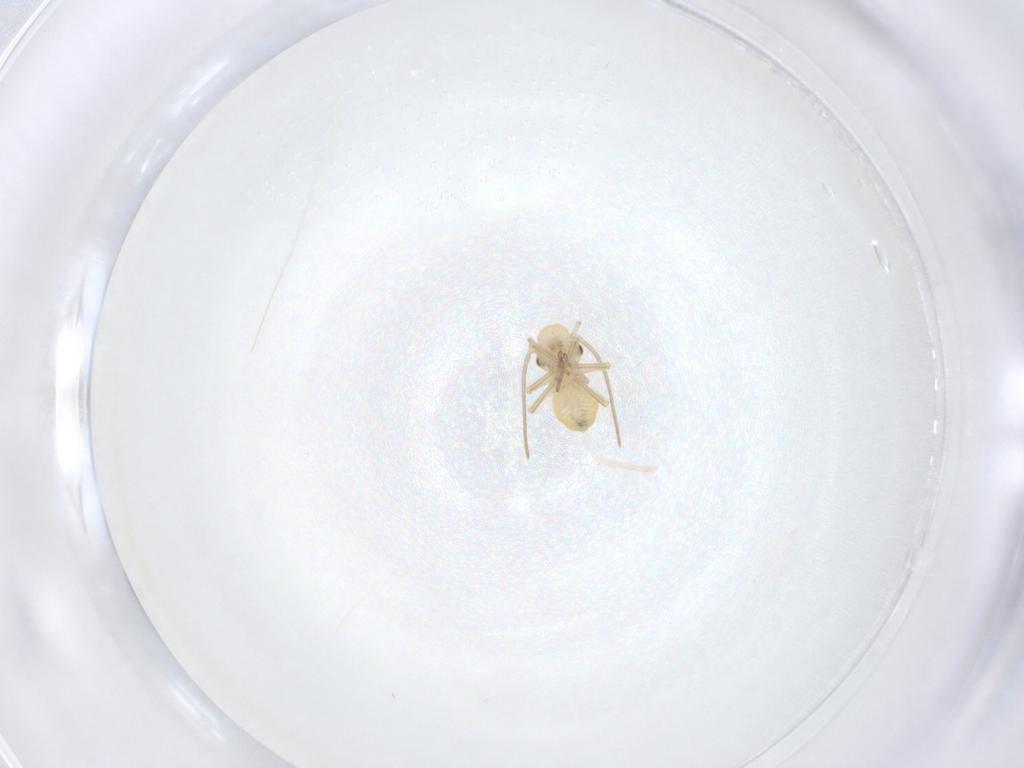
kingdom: Animalia
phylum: Arthropoda
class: Insecta
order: Psocodea
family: Caeciliusidae
